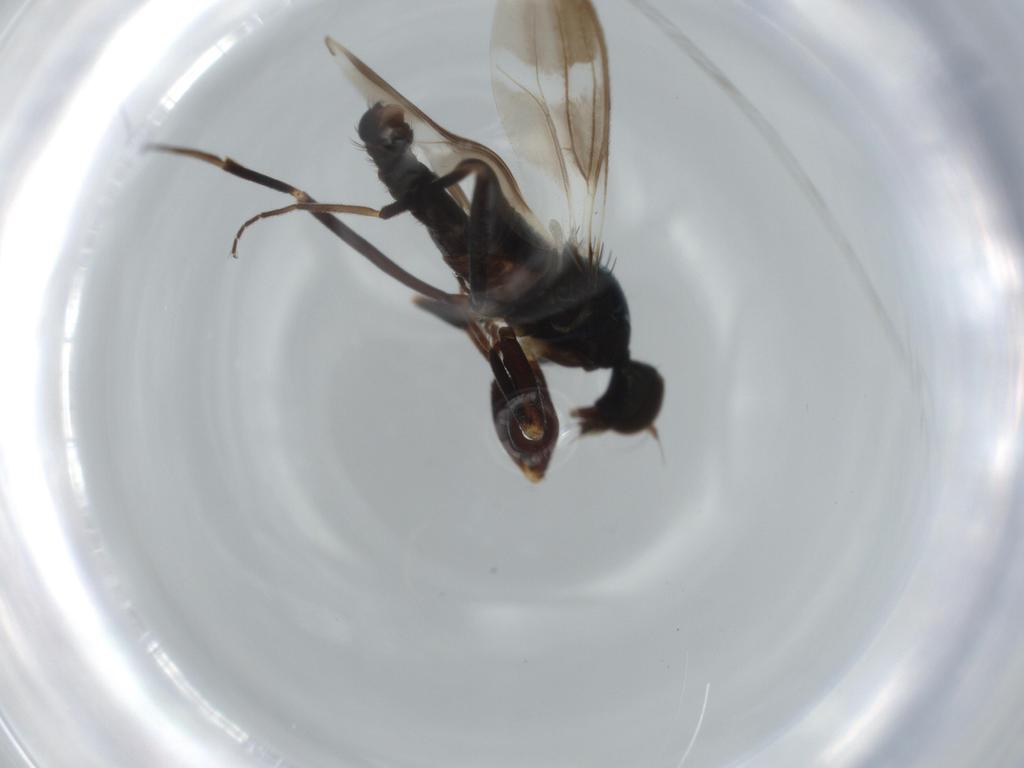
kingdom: Animalia
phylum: Arthropoda
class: Insecta
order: Diptera
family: Hybotidae
